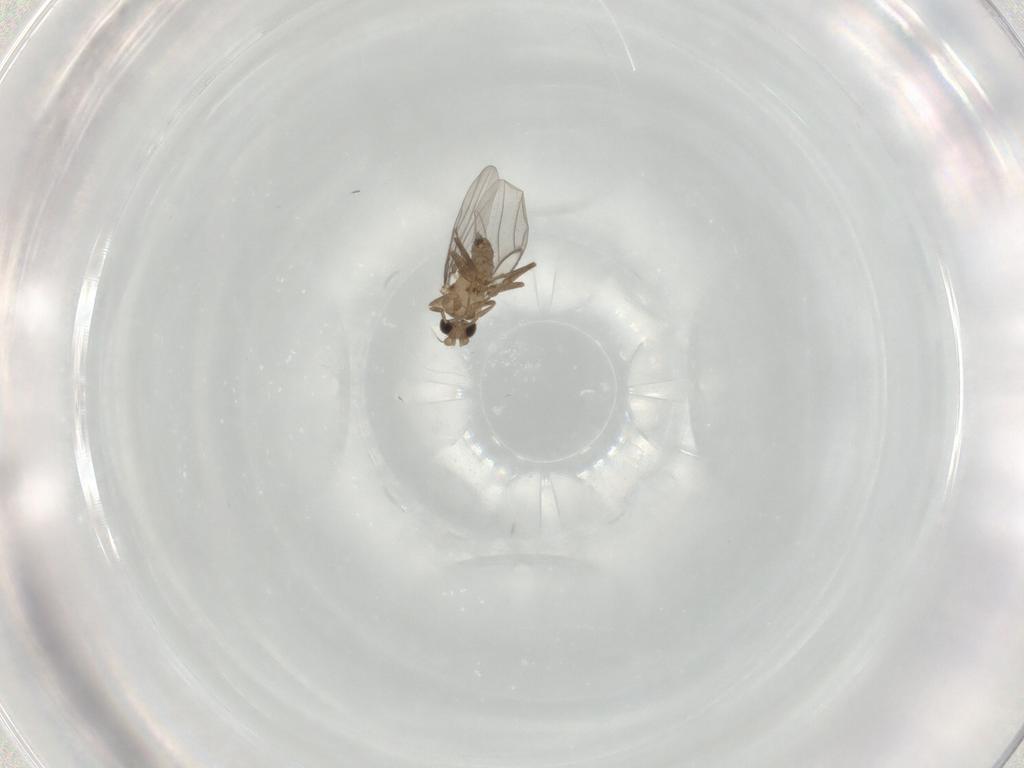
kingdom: Animalia
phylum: Arthropoda
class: Insecta
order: Diptera
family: Phoridae
